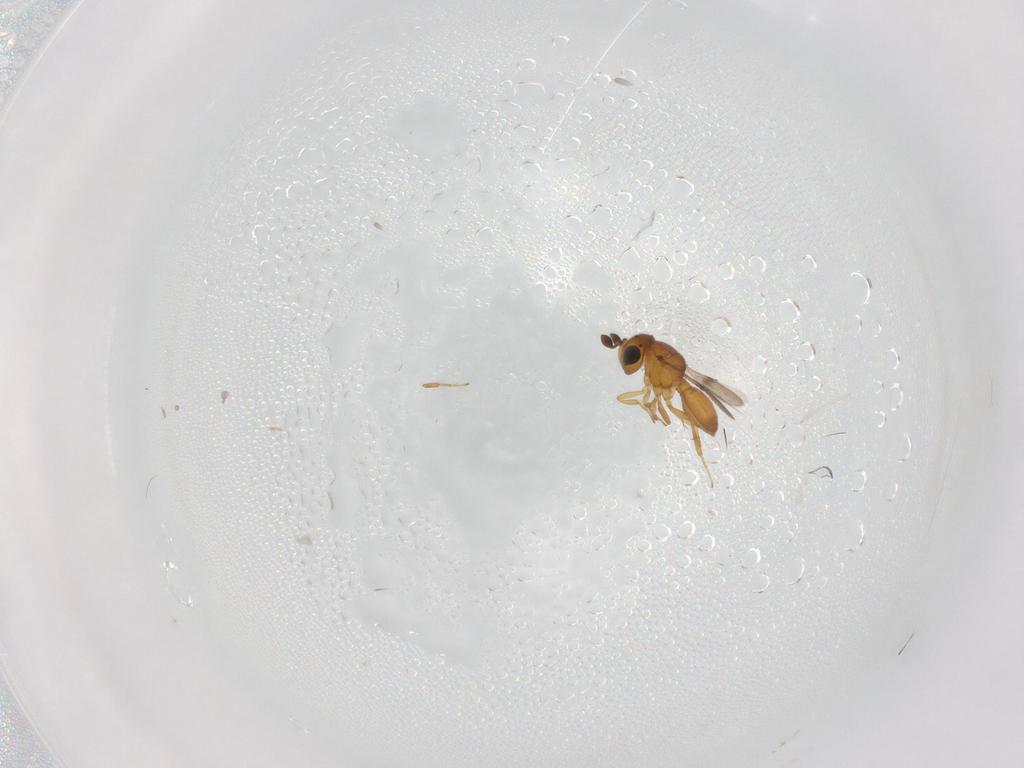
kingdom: Animalia
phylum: Arthropoda
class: Insecta
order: Hymenoptera
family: Scelionidae
